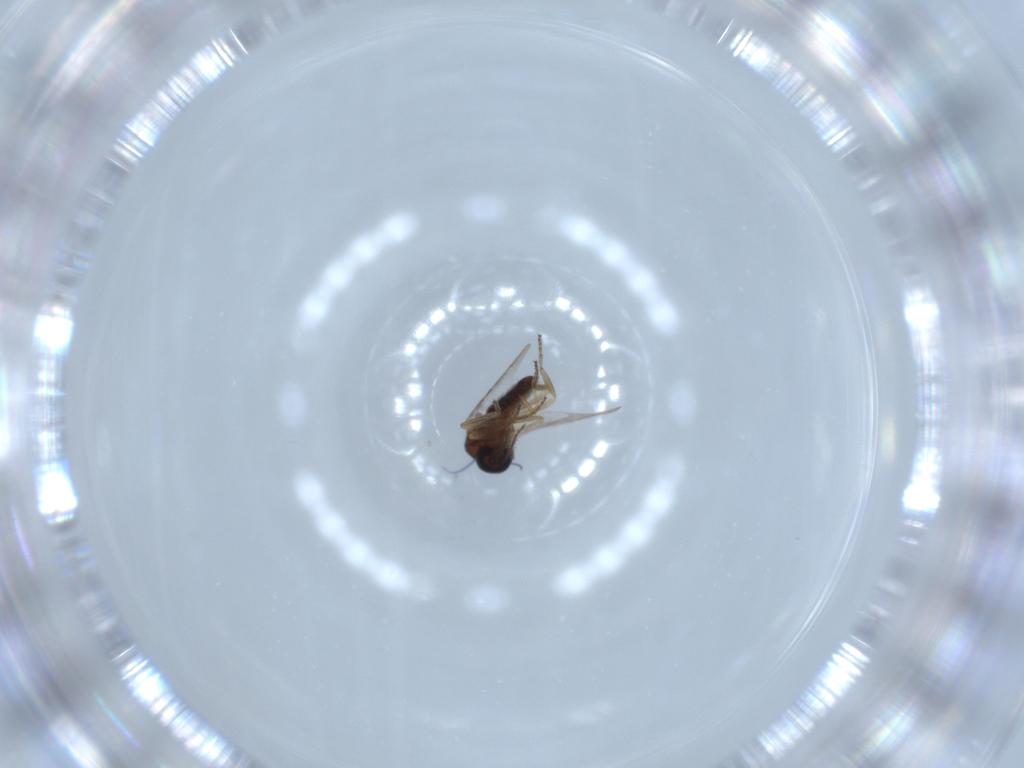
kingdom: Animalia
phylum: Arthropoda
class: Insecta
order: Diptera
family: Ceratopogonidae
